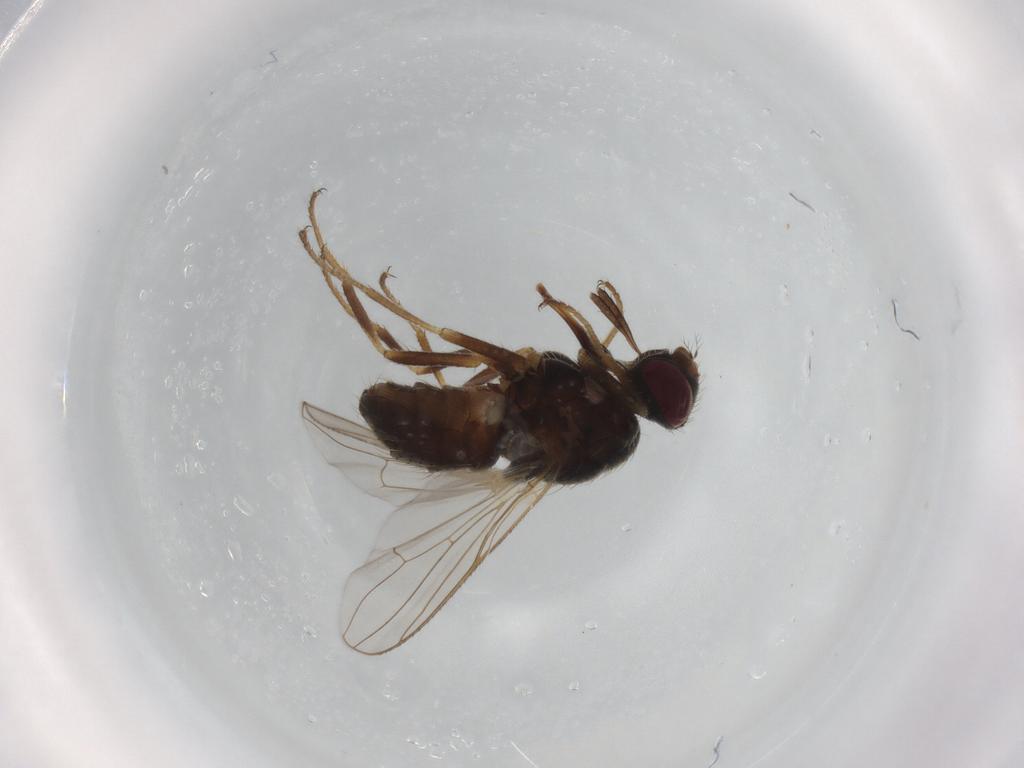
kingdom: Animalia
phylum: Arthropoda
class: Insecta
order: Diptera
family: Muscidae
